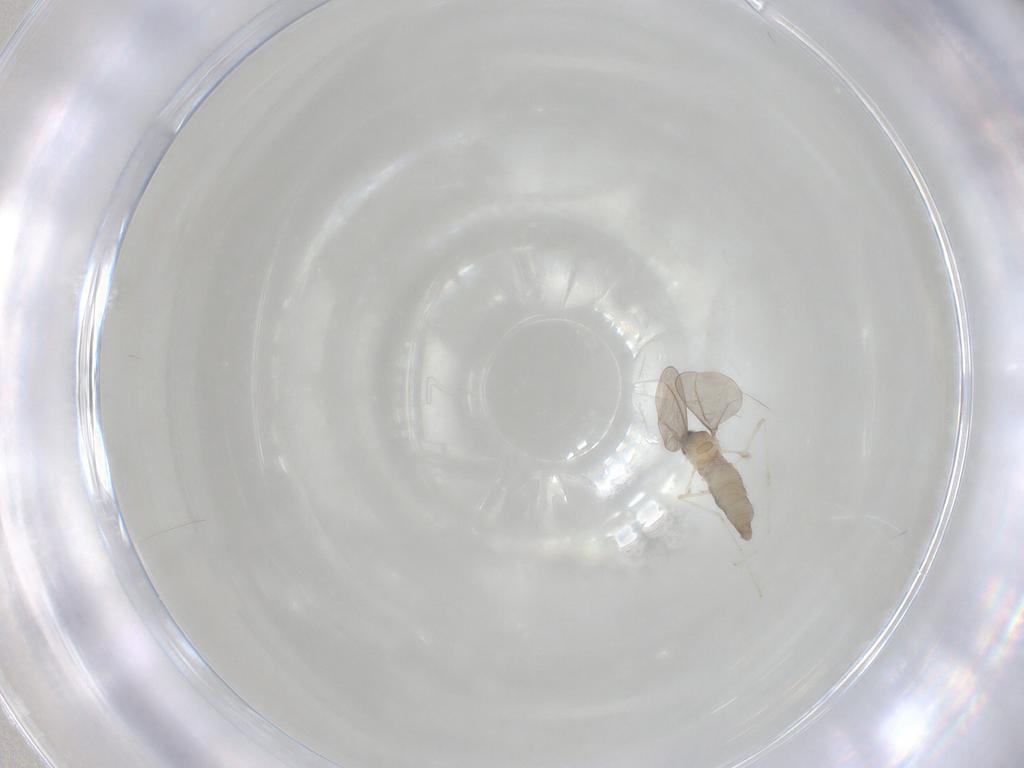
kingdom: Animalia
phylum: Arthropoda
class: Insecta
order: Diptera
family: Cecidomyiidae
